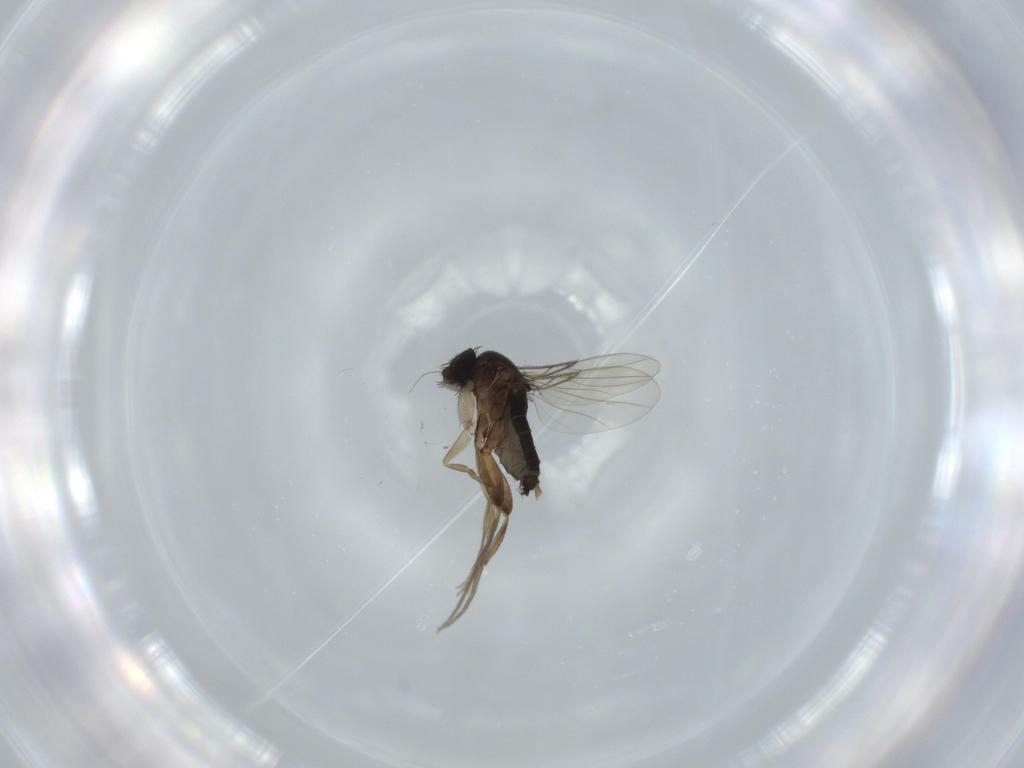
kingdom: Animalia
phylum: Arthropoda
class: Insecta
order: Diptera
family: Phoridae
